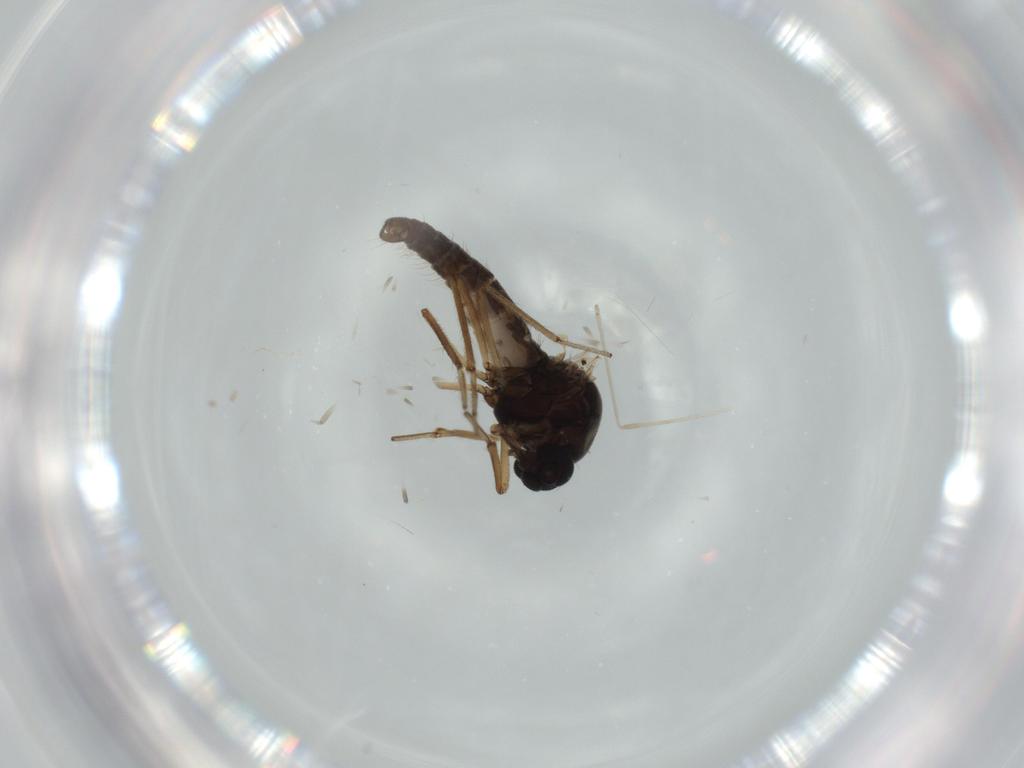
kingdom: Animalia
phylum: Arthropoda
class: Insecta
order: Diptera
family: Ceratopogonidae
